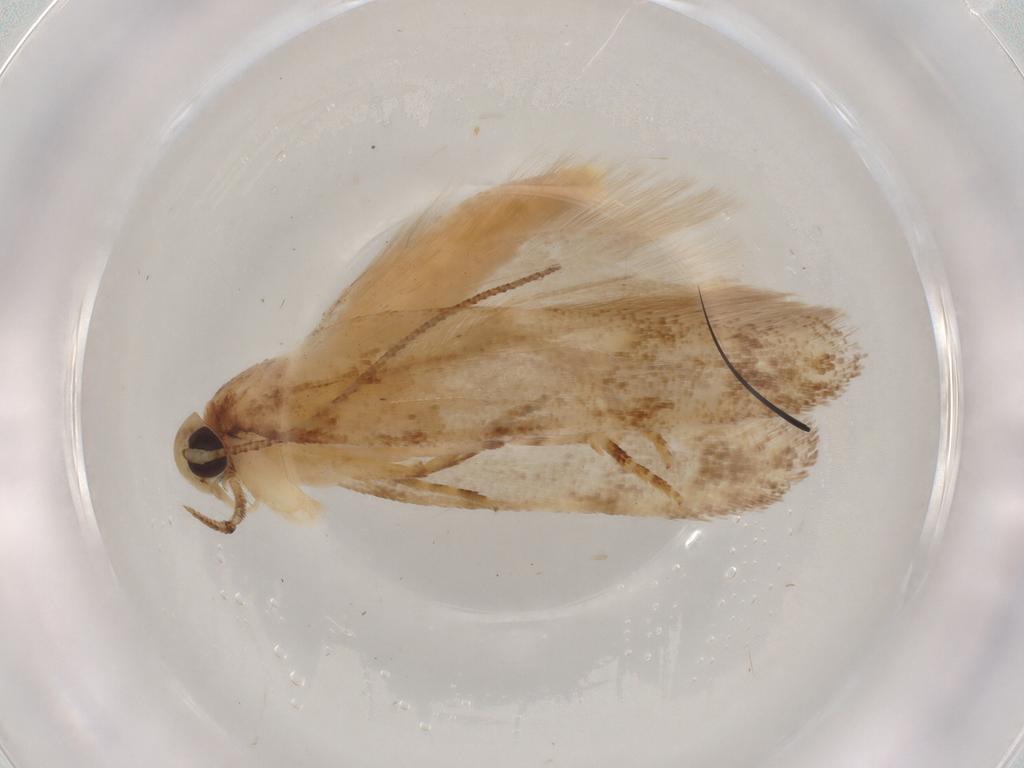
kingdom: Animalia
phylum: Arthropoda
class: Insecta
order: Lepidoptera
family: Gelechiidae
